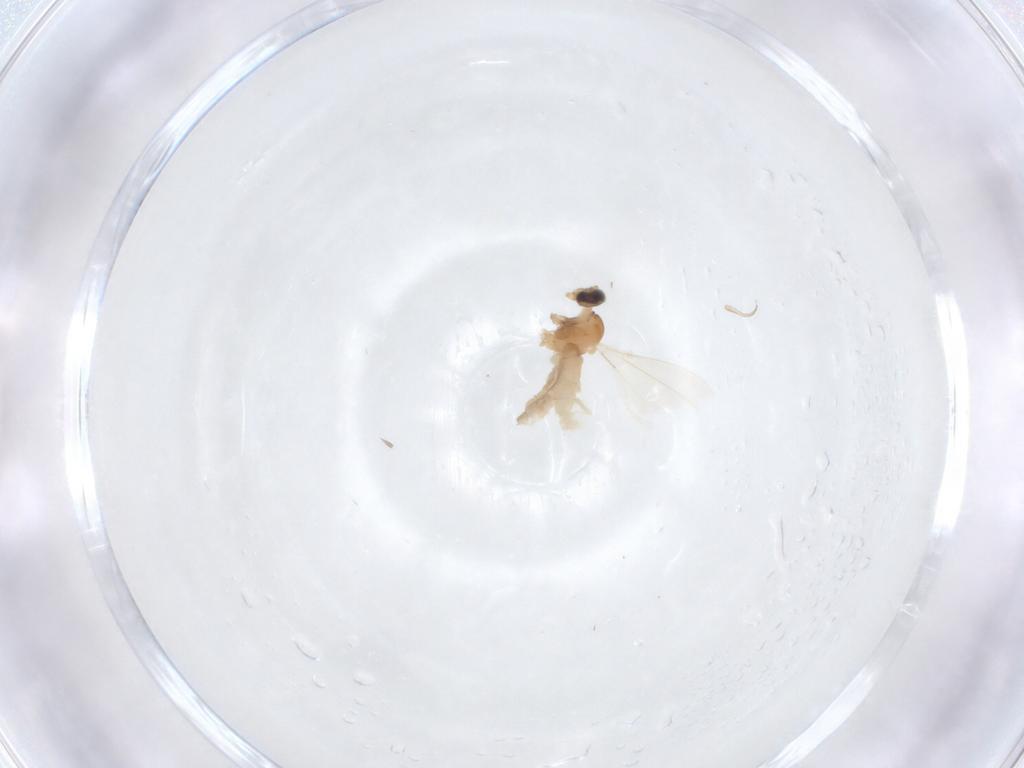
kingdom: Animalia
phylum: Arthropoda
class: Insecta
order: Diptera
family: Cecidomyiidae
